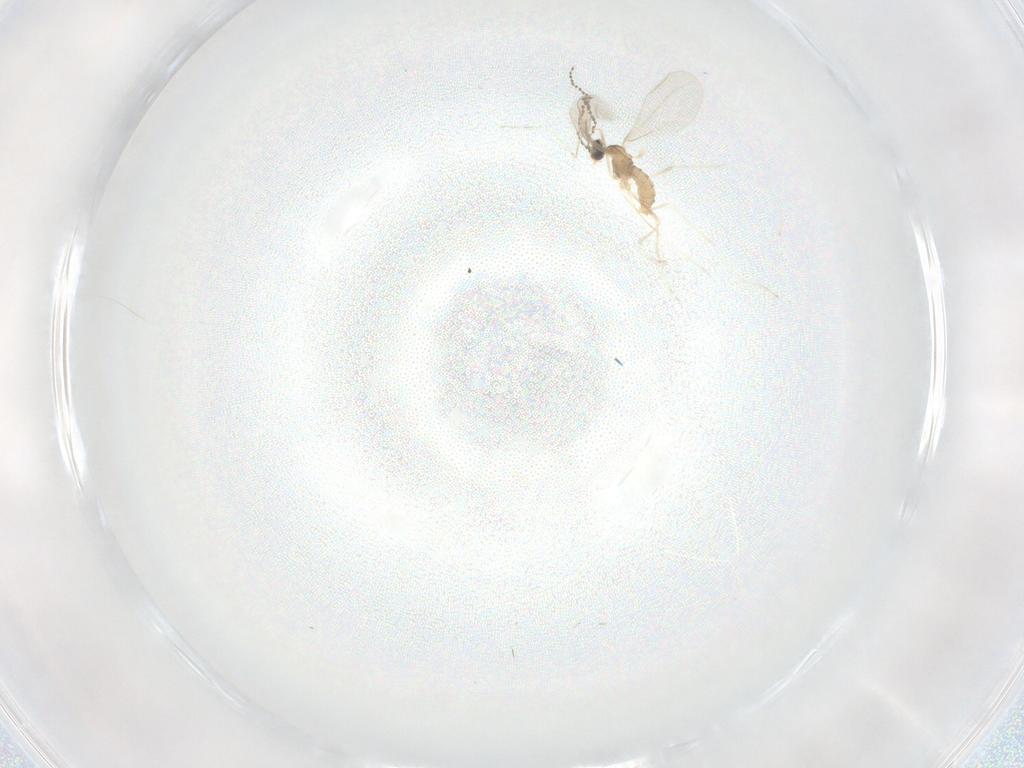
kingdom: Animalia
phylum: Arthropoda
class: Insecta
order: Diptera
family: Cecidomyiidae
